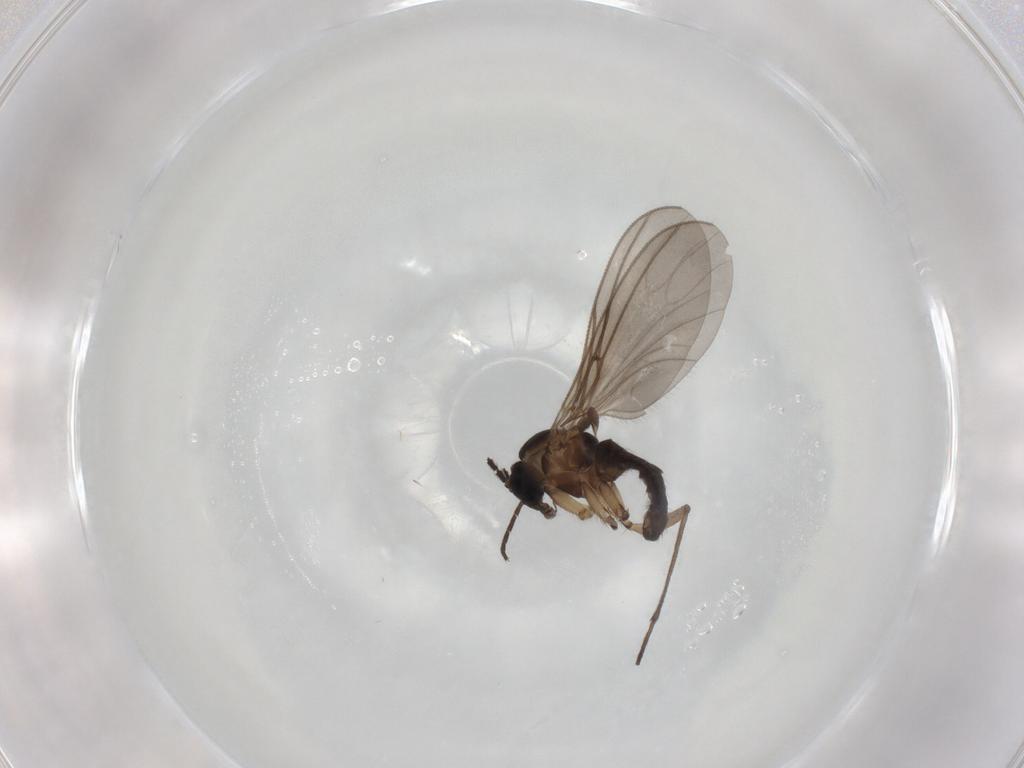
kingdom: Animalia
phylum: Arthropoda
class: Insecta
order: Diptera
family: Sciaridae
